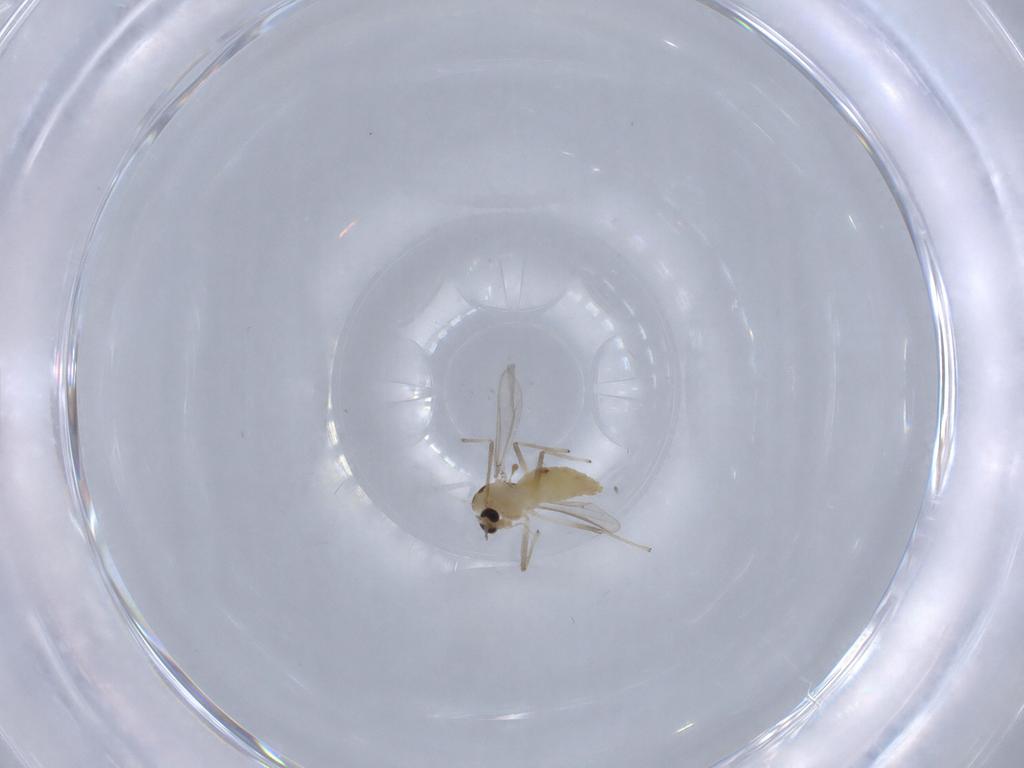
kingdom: Animalia
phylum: Arthropoda
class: Insecta
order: Diptera
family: Chironomidae
